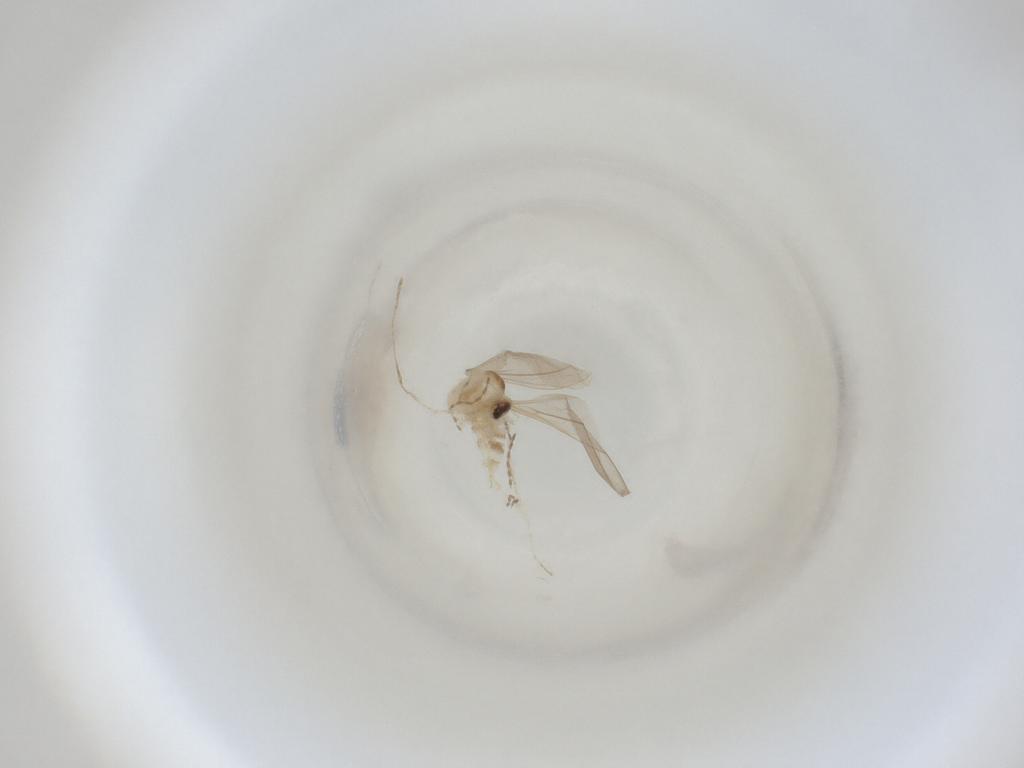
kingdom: Animalia
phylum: Arthropoda
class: Insecta
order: Diptera
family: Cecidomyiidae
